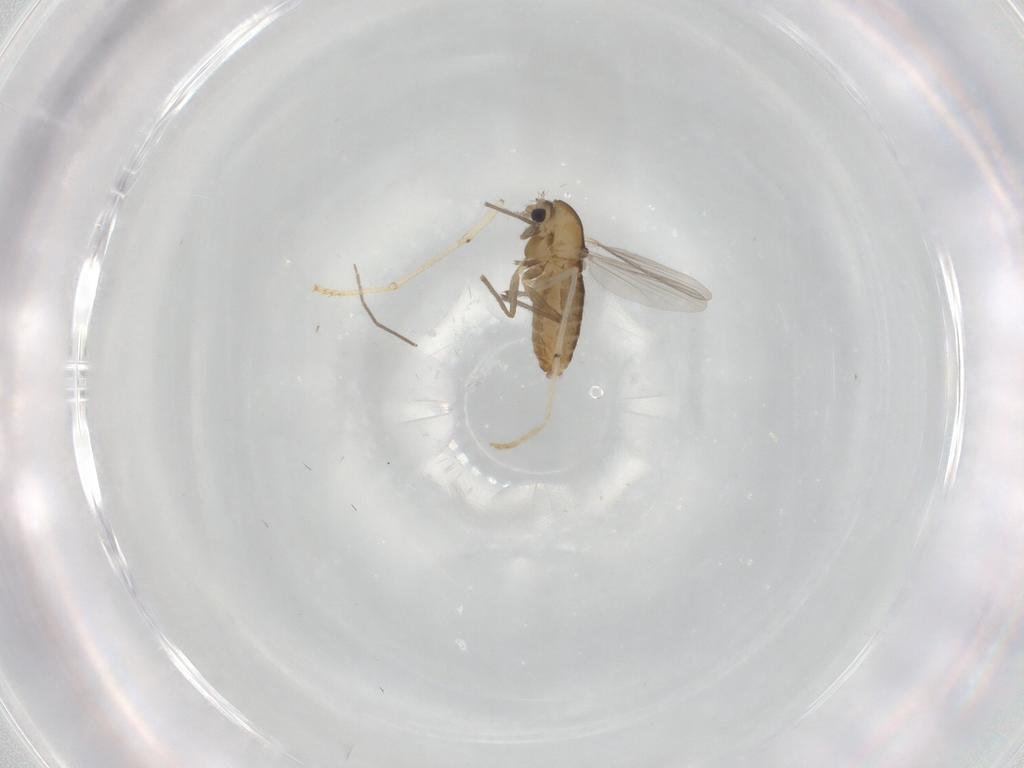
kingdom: Animalia
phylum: Arthropoda
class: Insecta
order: Diptera
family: Chironomidae
